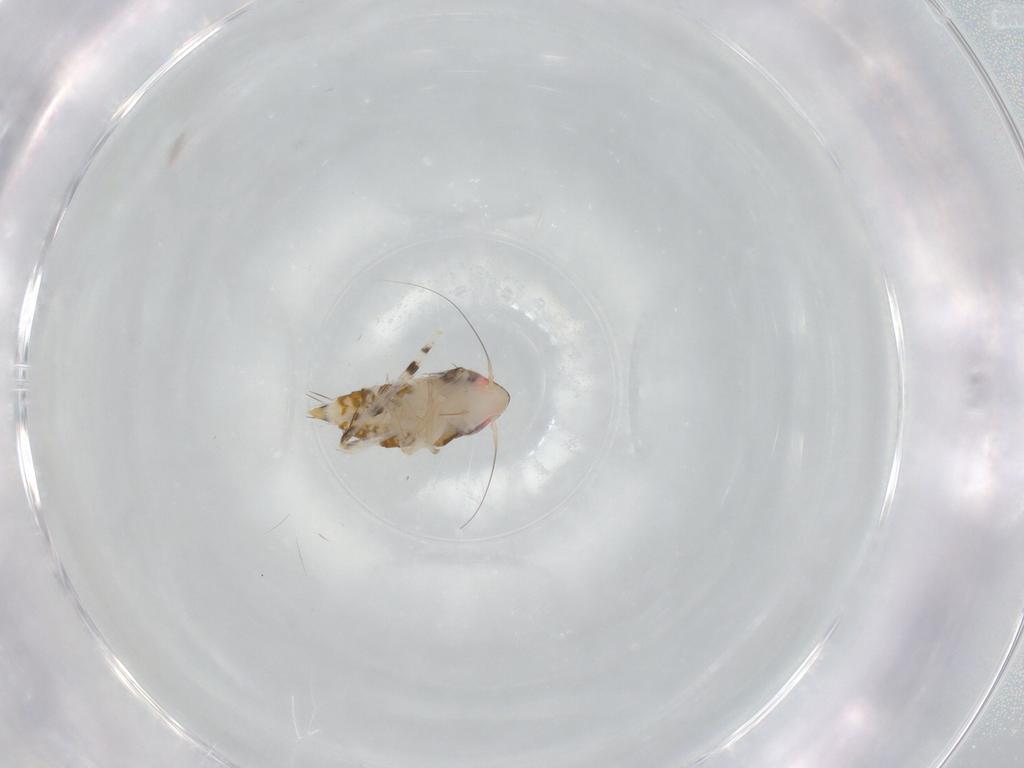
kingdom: Animalia
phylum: Arthropoda
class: Insecta
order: Hemiptera
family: Cicadellidae
